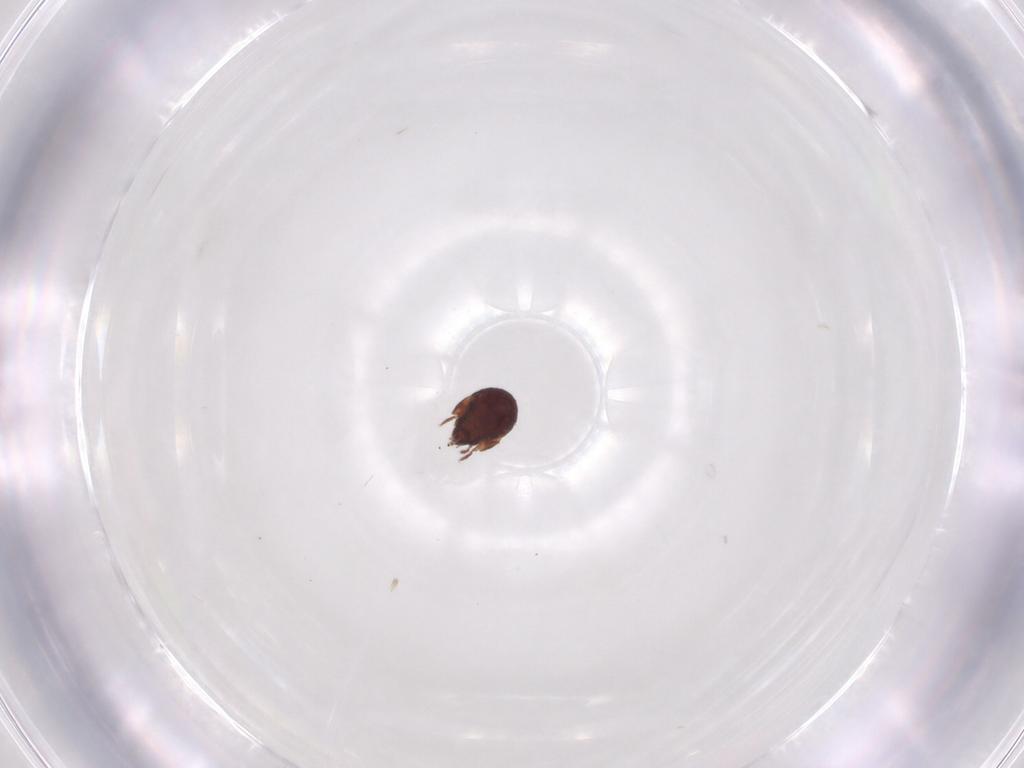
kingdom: Animalia
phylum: Arthropoda
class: Arachnida
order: Sarcoptiformes
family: Humerobatidae
